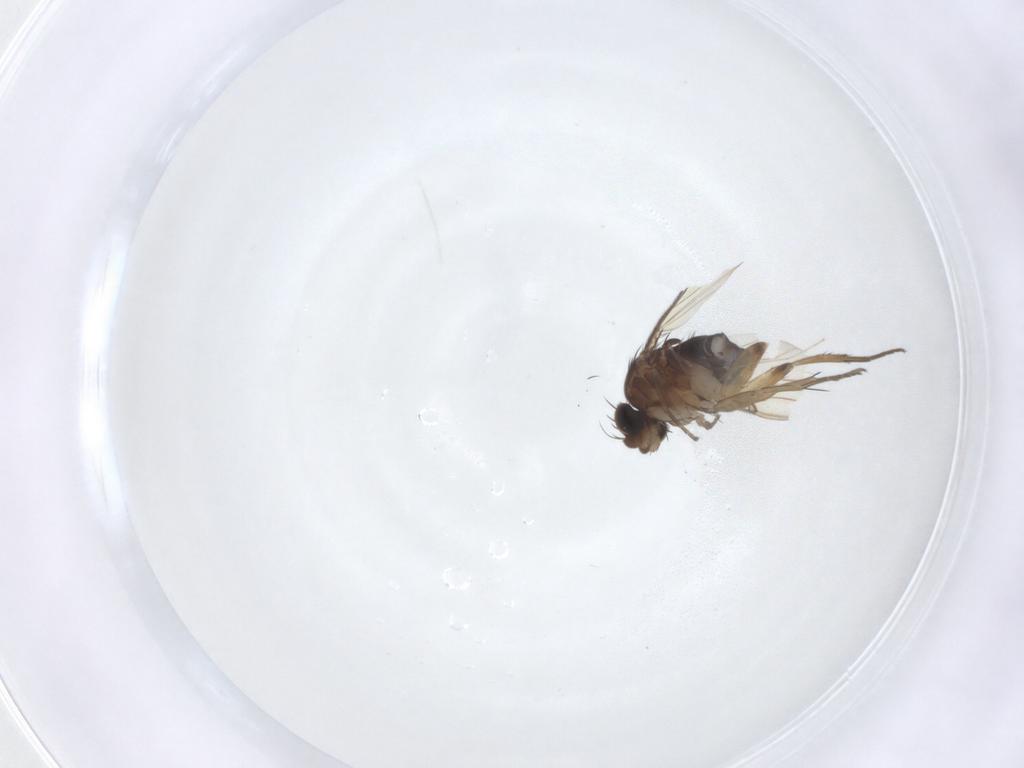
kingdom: Animalia
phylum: Arthropoda
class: Insecta
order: Diptera
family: Phoridae
